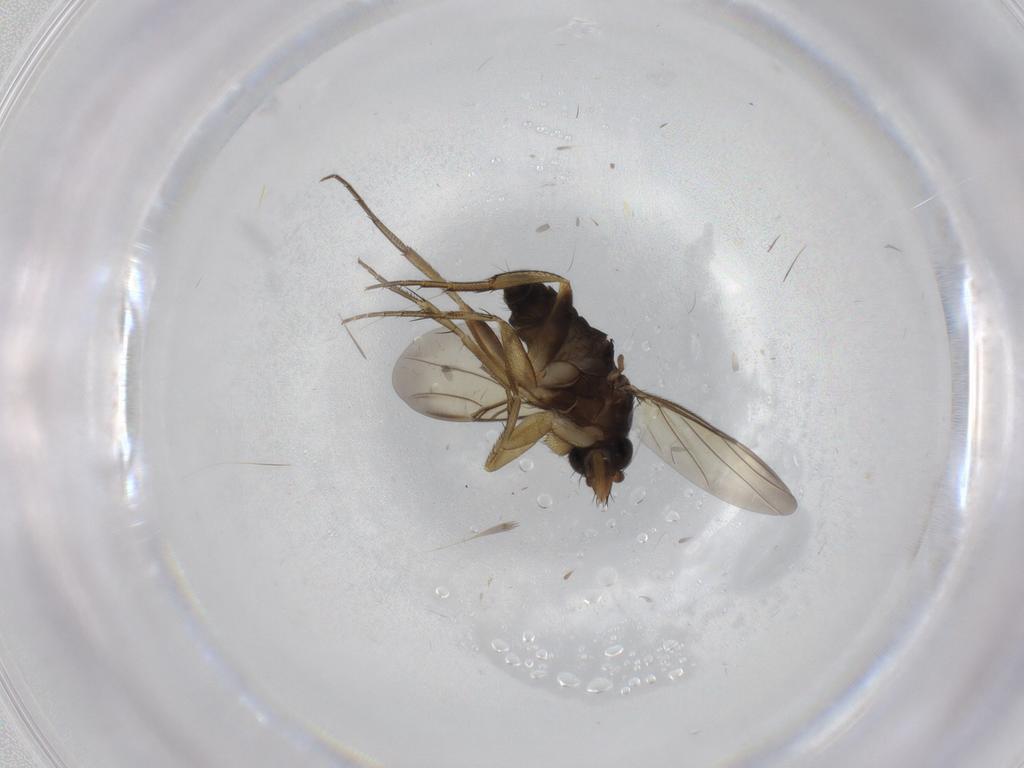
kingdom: Animalia
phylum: Arthropoda
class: Insecta
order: Diptera
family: Phoridae
